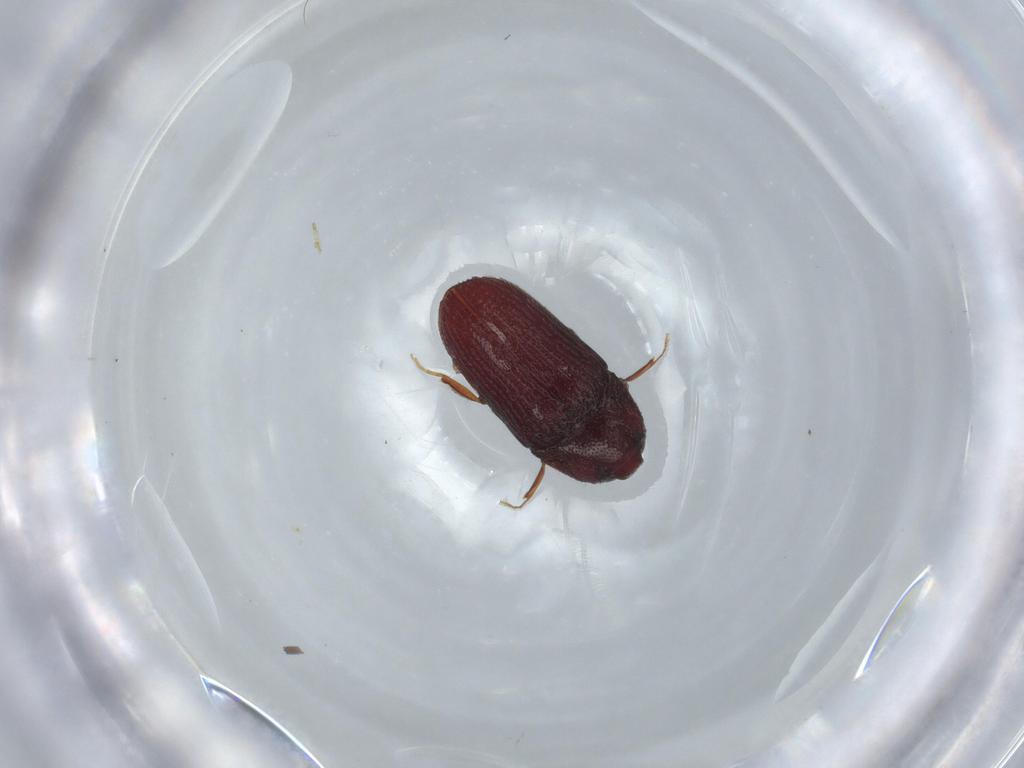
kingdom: Animalia
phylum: Arthropoda
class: Insecta
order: Coleoptera
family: Throscidae
